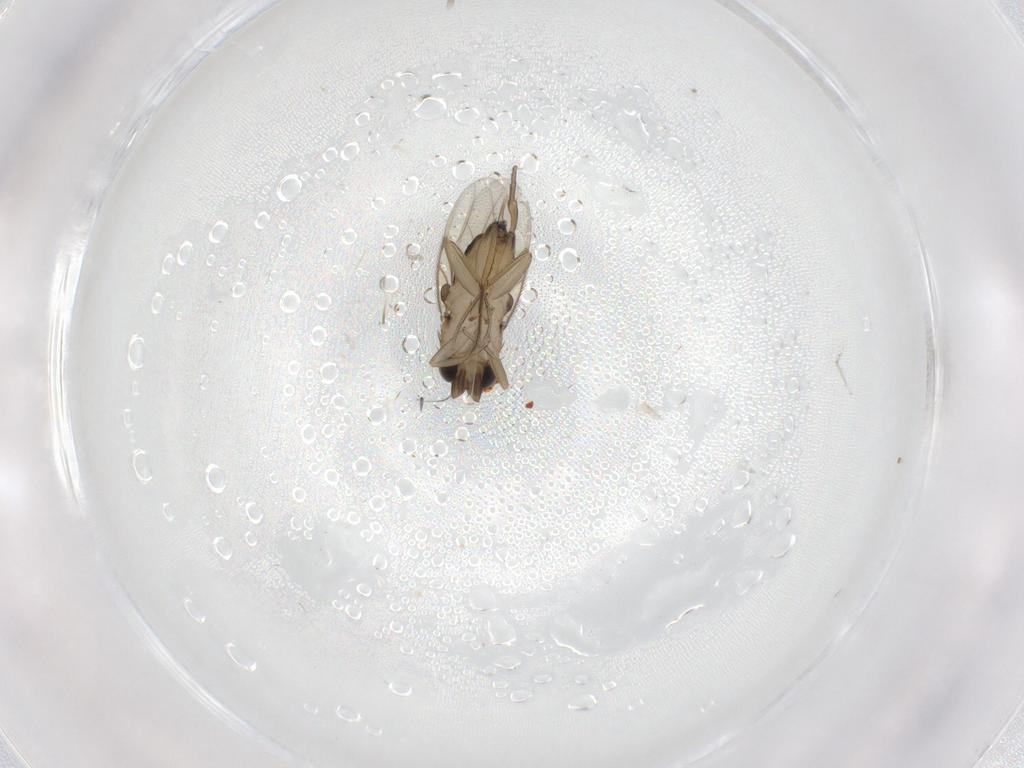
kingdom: Animalia
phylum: Arthropoda
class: Insecta
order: Diptera
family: Phoridae
